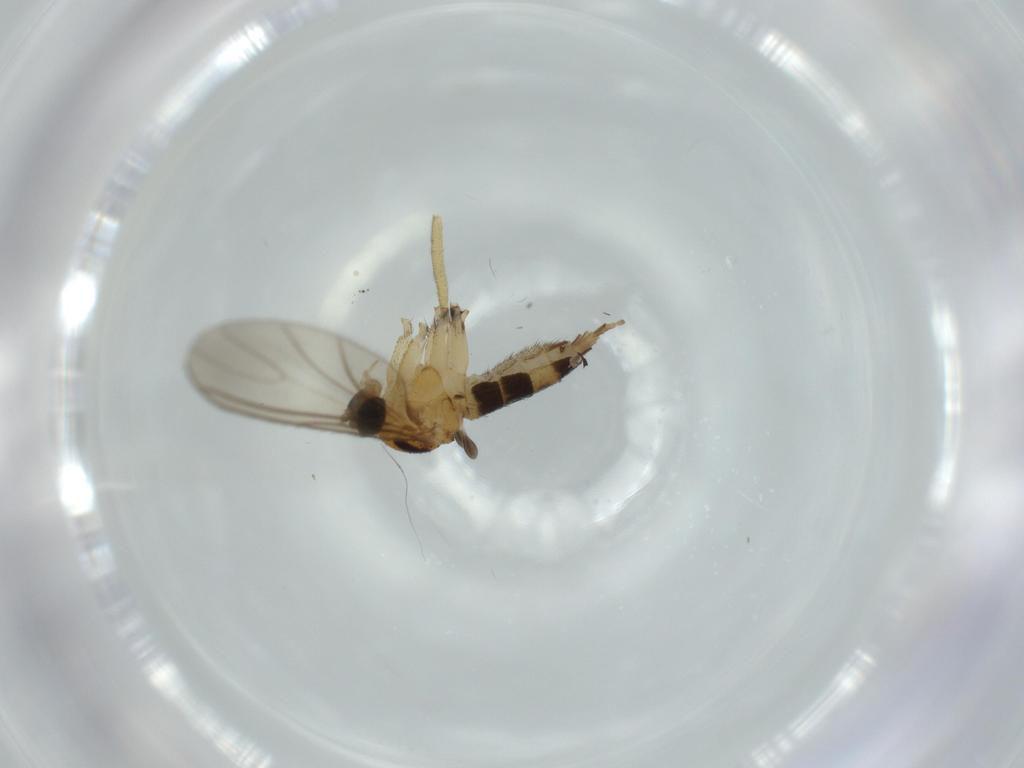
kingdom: Animalia
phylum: Arthropoda
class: Insecta
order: Diptera
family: Sciaridae
